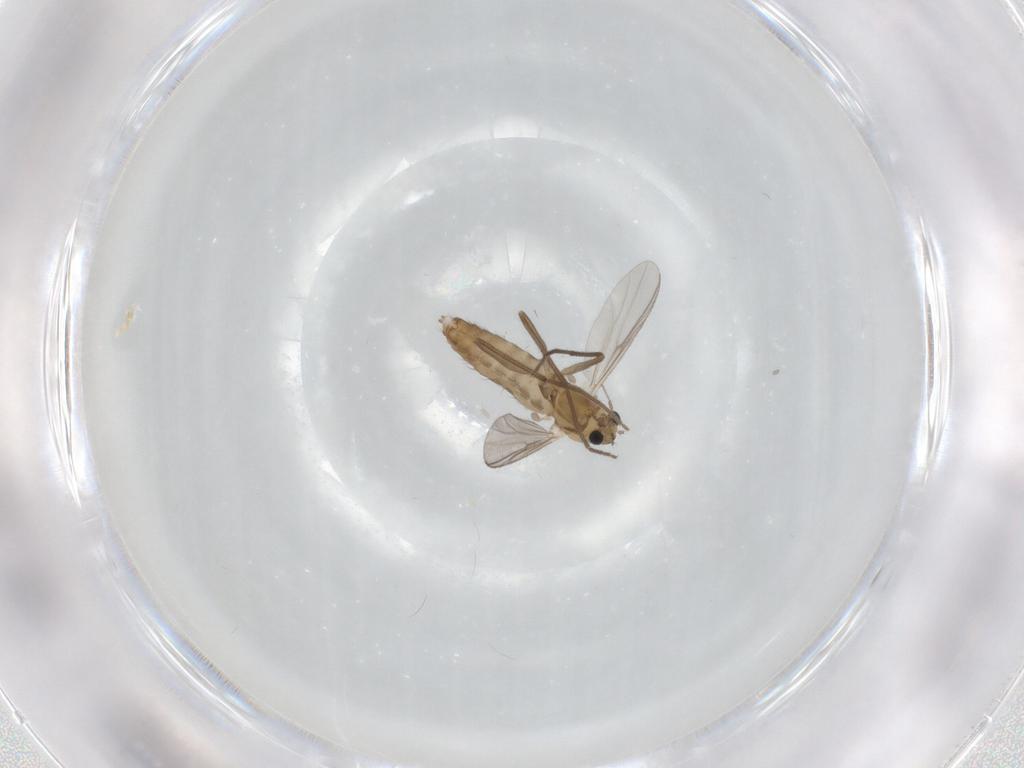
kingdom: Animalia
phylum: Arthropoda
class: Insecta
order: Diptera
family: Chironomidae
